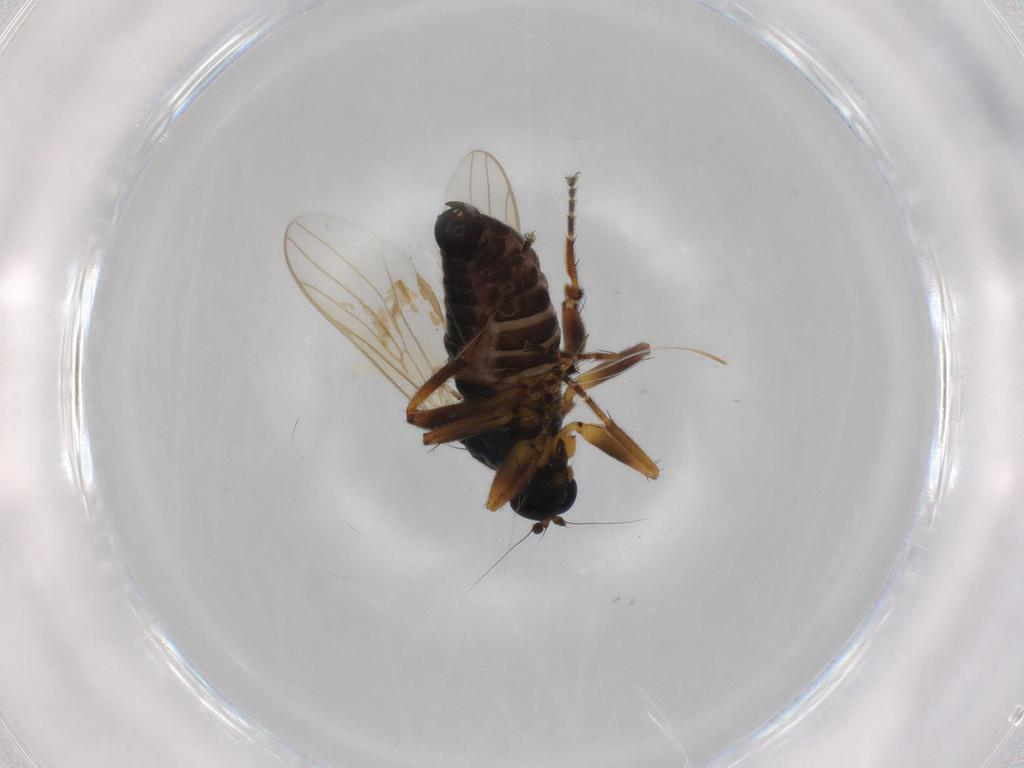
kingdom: Animalia
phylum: Arthropoda
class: Insecta
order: Diptera
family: Hybotidae
